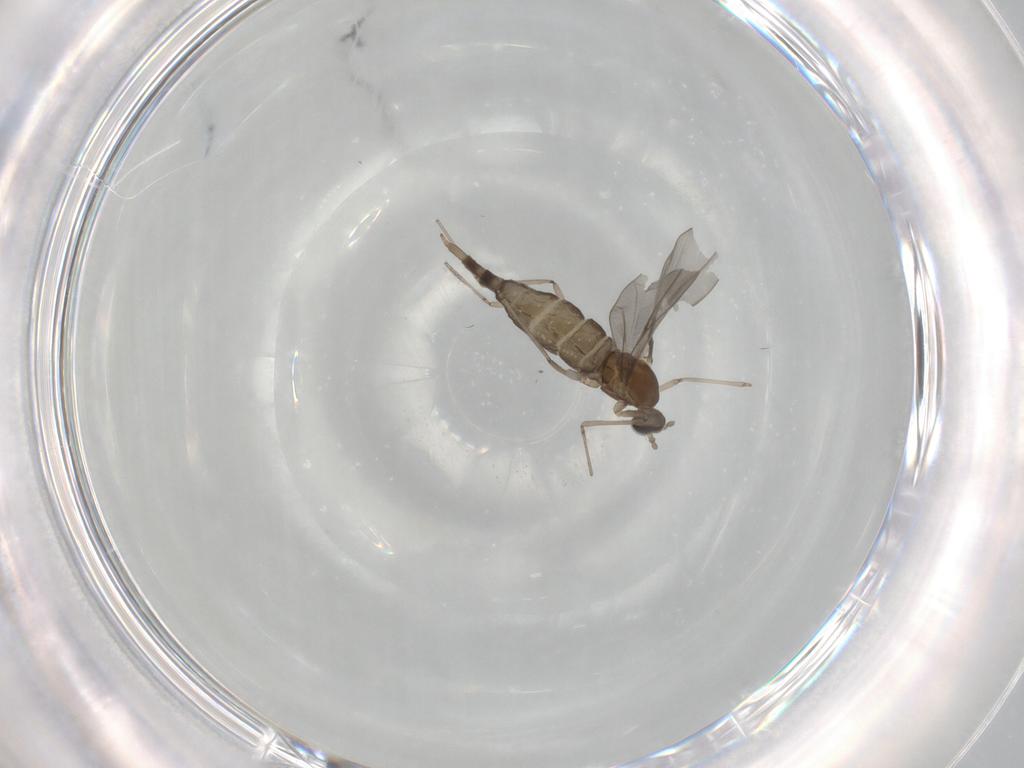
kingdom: Animalia
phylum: Arthropoda
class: Insecta
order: Diptera
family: Cecidomyiidae
